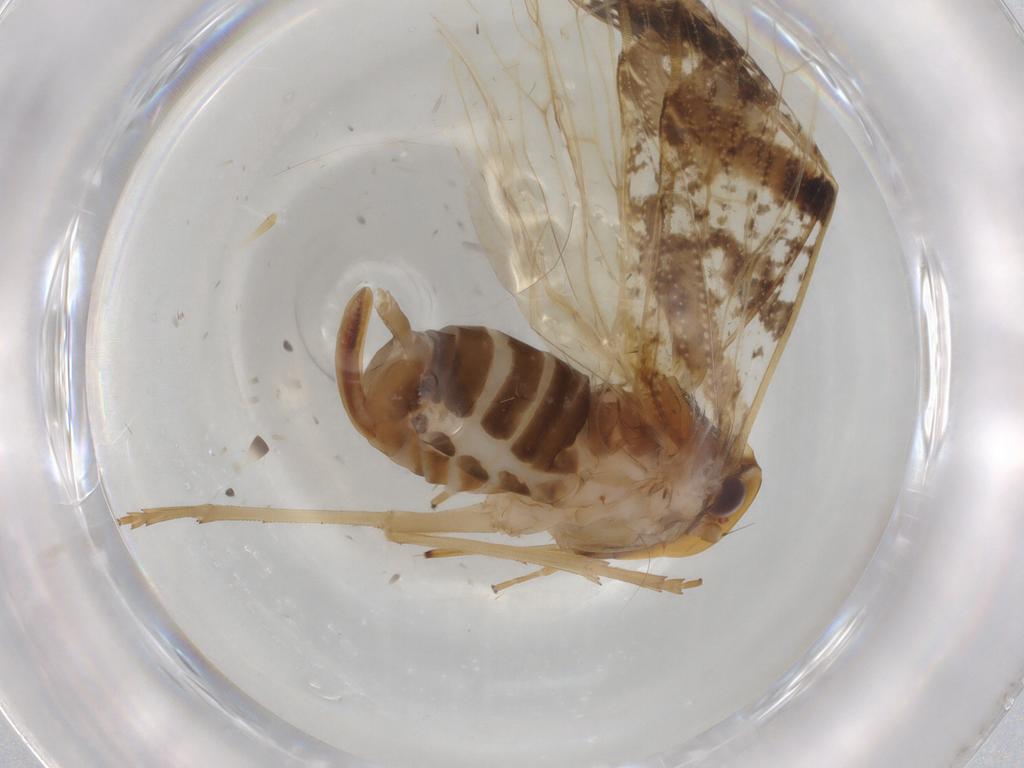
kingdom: Animalia
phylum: Arthropoda
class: Insecta
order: Hemiptera
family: Cixiidae
